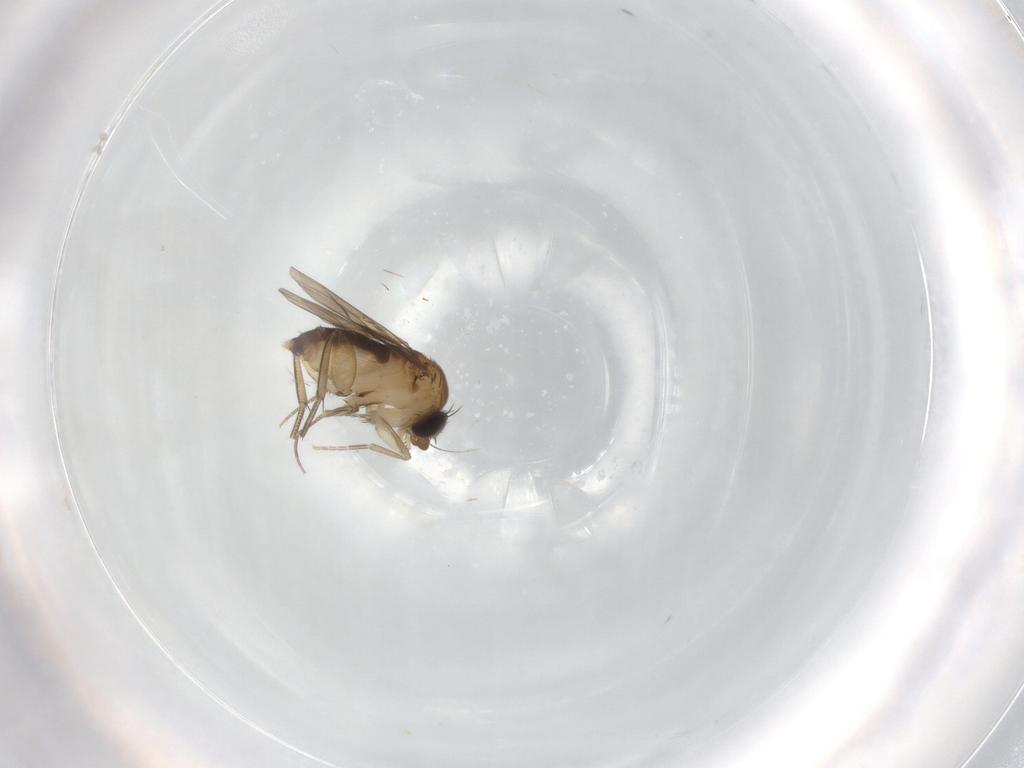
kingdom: Animalia
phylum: Arthropoda
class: Insecta
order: Diptera
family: Phoridae
